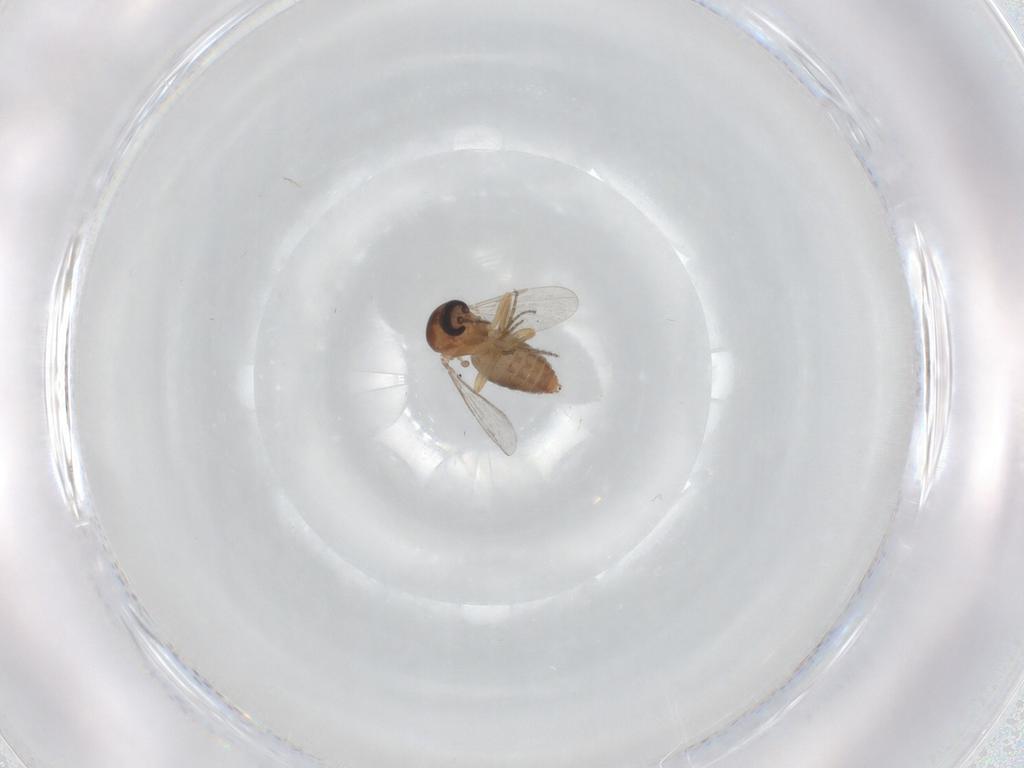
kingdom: Animalia
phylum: Arthropoda
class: Insecta
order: Diptera
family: Ceratopogonidae
